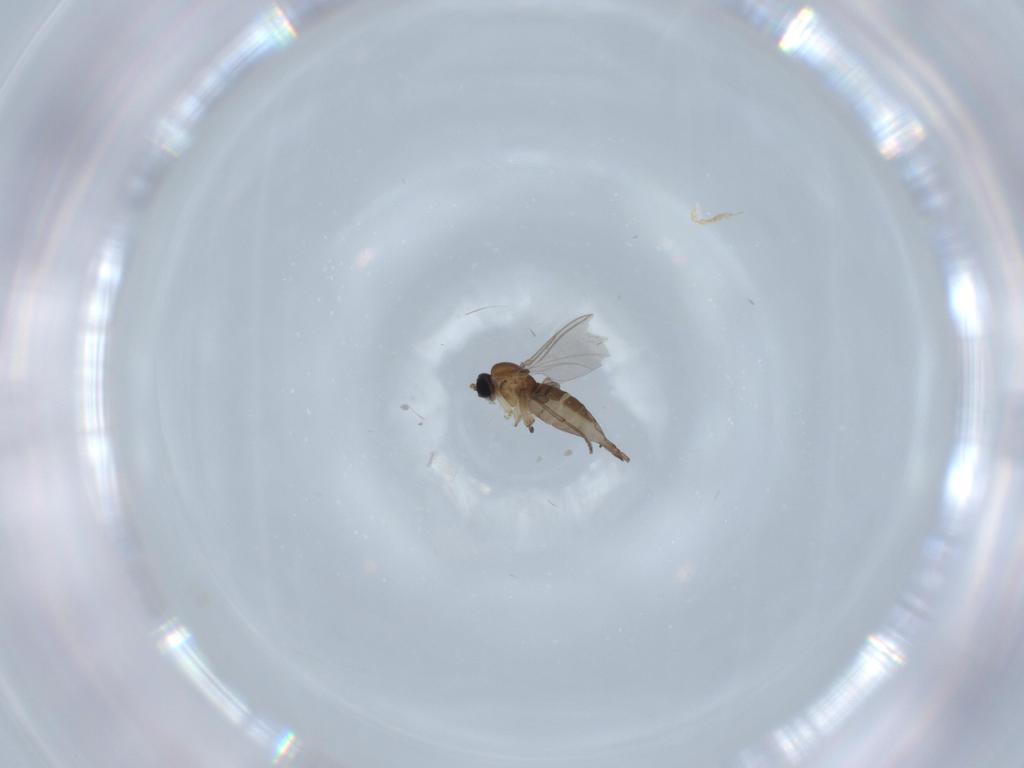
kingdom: Animalia
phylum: Arthropoda
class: Insecta
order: Diptera
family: Sciaridae
